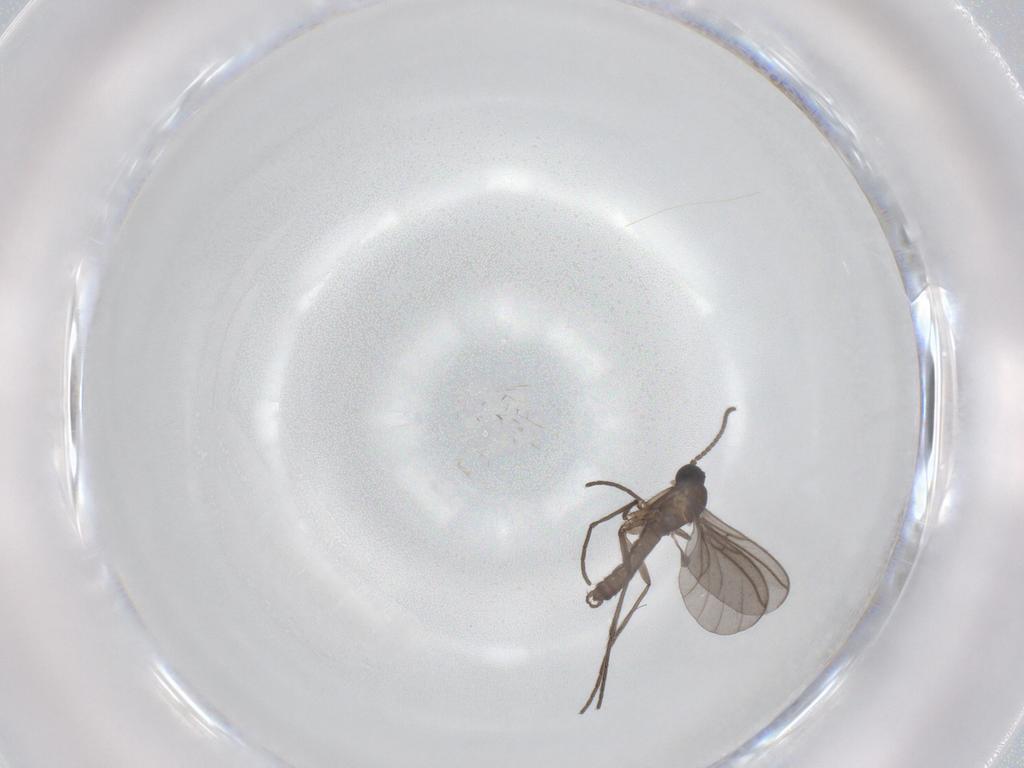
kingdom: Animalia
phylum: Arthropoda
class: Insecta
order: Diptera
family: Sciaridae
